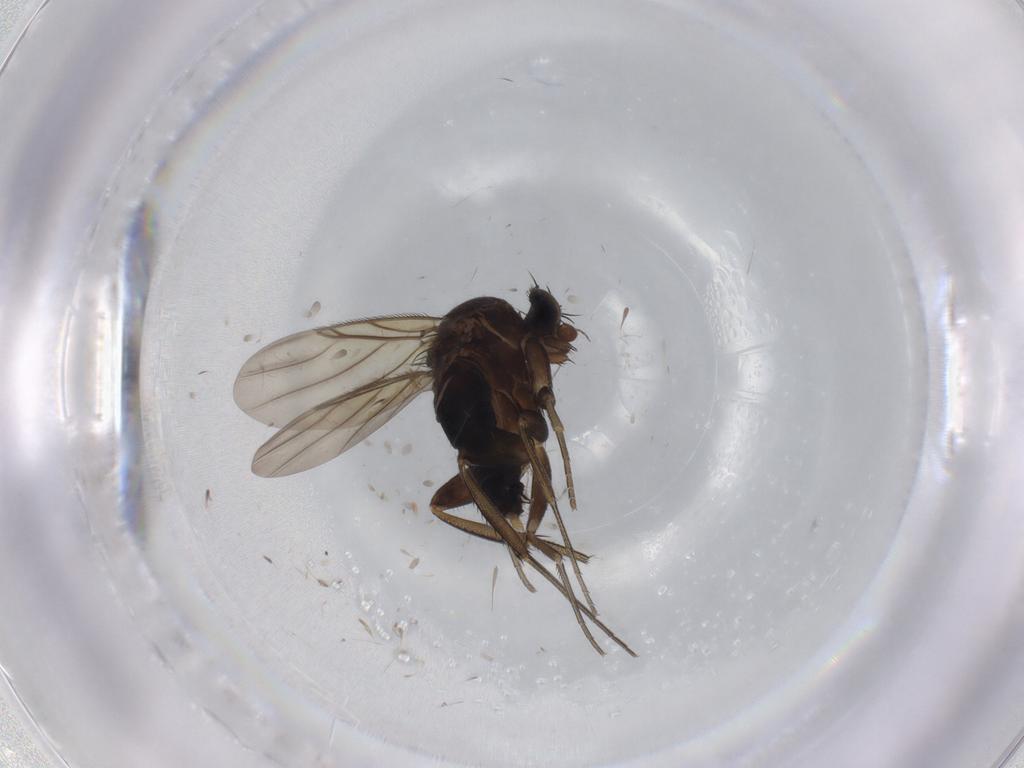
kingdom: Animalia
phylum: Arthropoda
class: Insecta
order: Diptera
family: Phoridae
